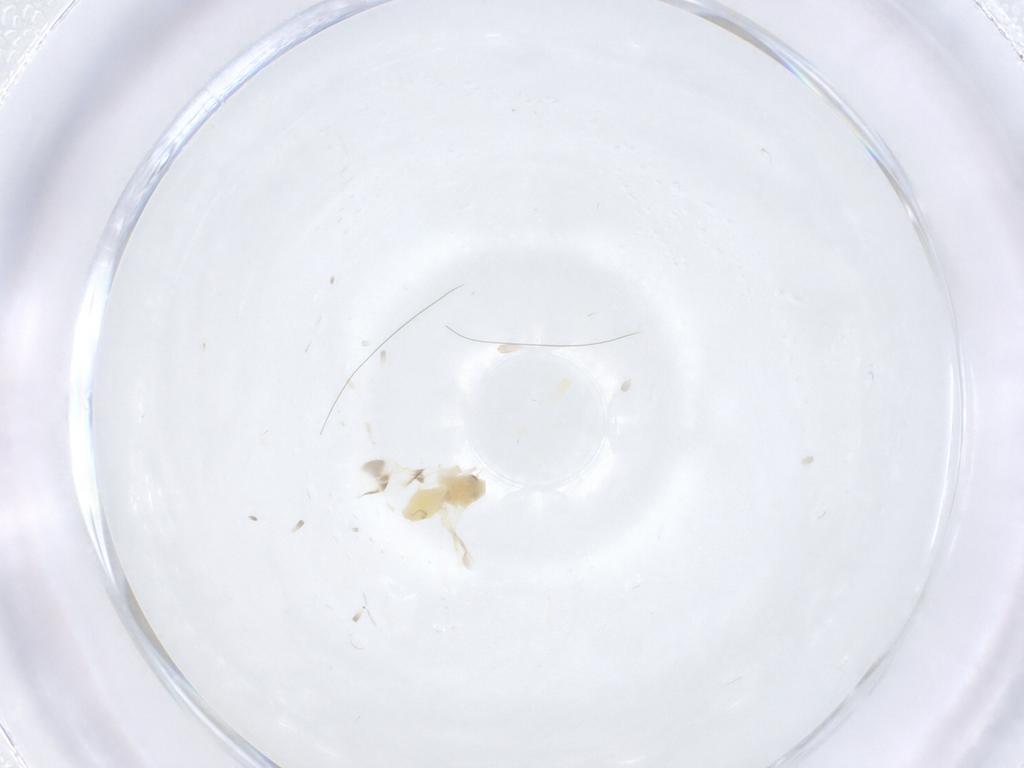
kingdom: Animalia
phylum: Arthropoda
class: Insecta
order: Hemiptera
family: Aleyrodidae
